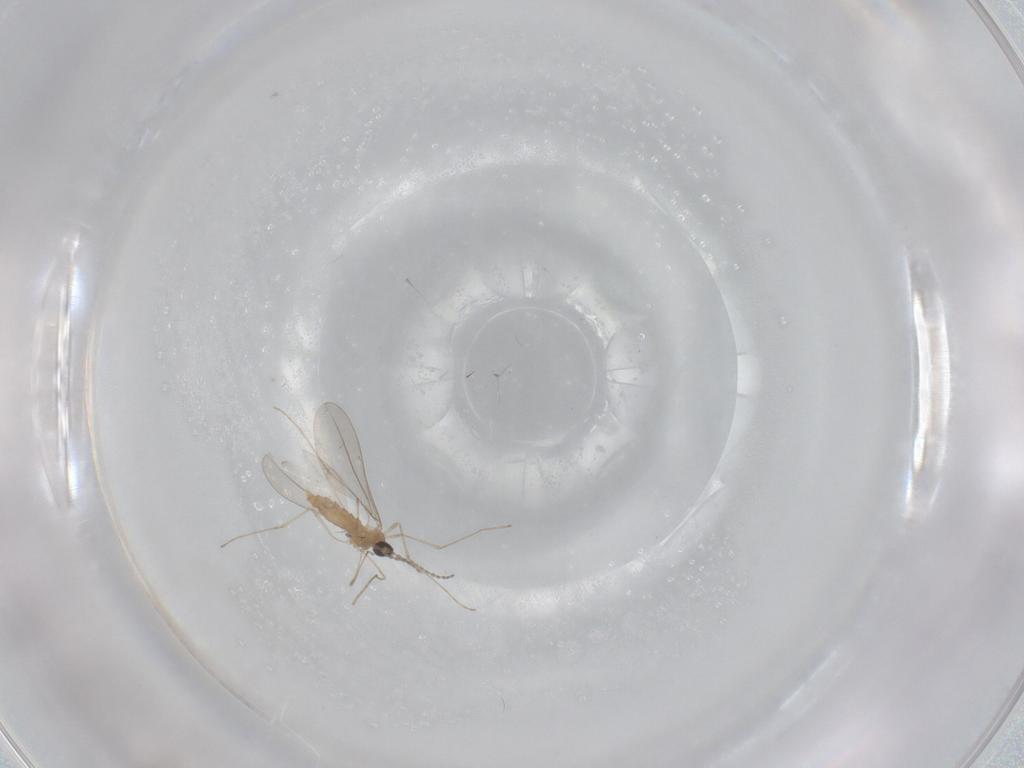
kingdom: Animalia
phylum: Arthropoda
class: Insecta
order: Diptera
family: Cecidomyiidae
